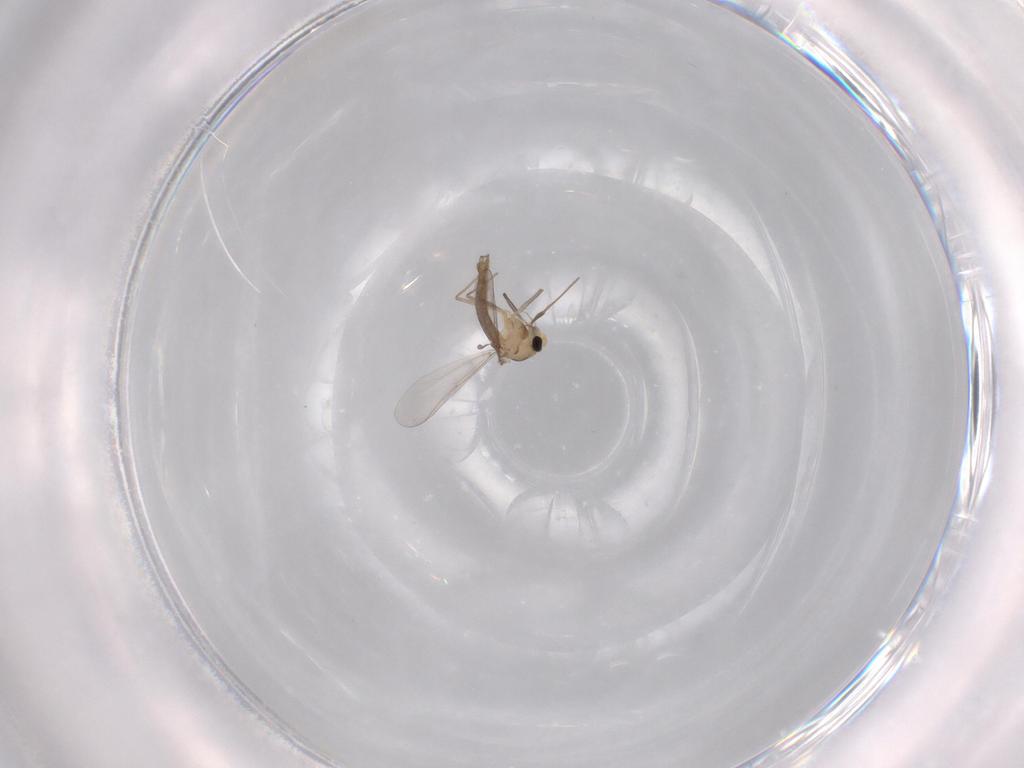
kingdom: Animalia
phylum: Arthropoda
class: Insecta
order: Diptera
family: Chironomidae
